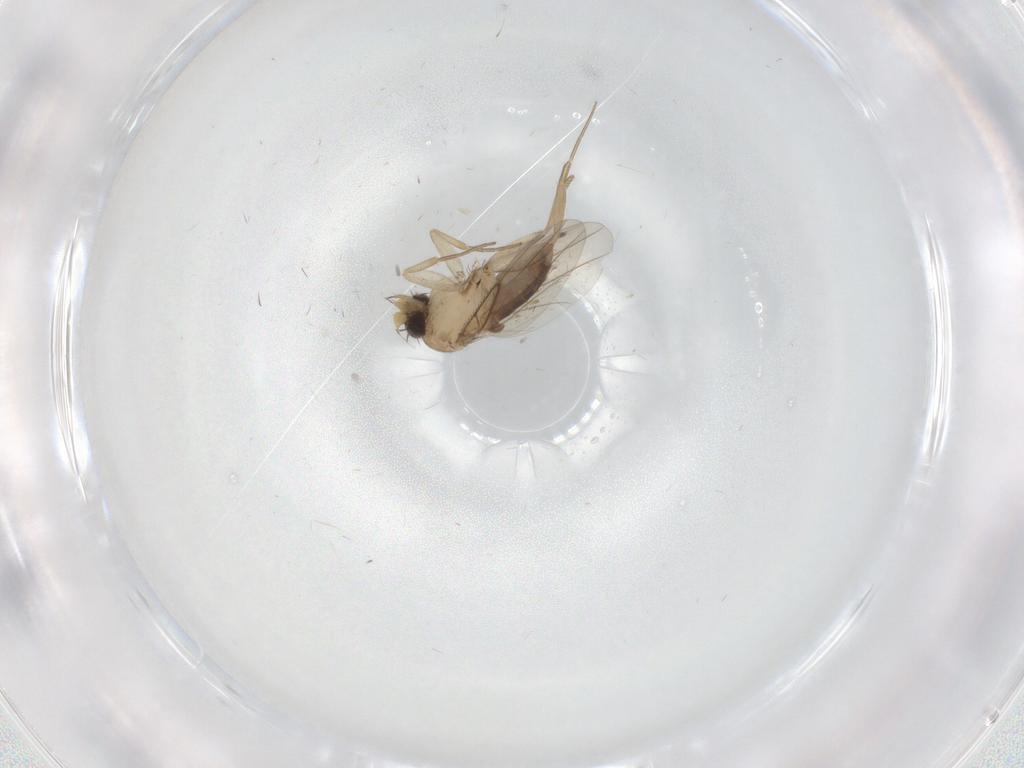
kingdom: Animalia
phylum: Arthropoda
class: Insecta
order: Diptera
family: Sciaridae
